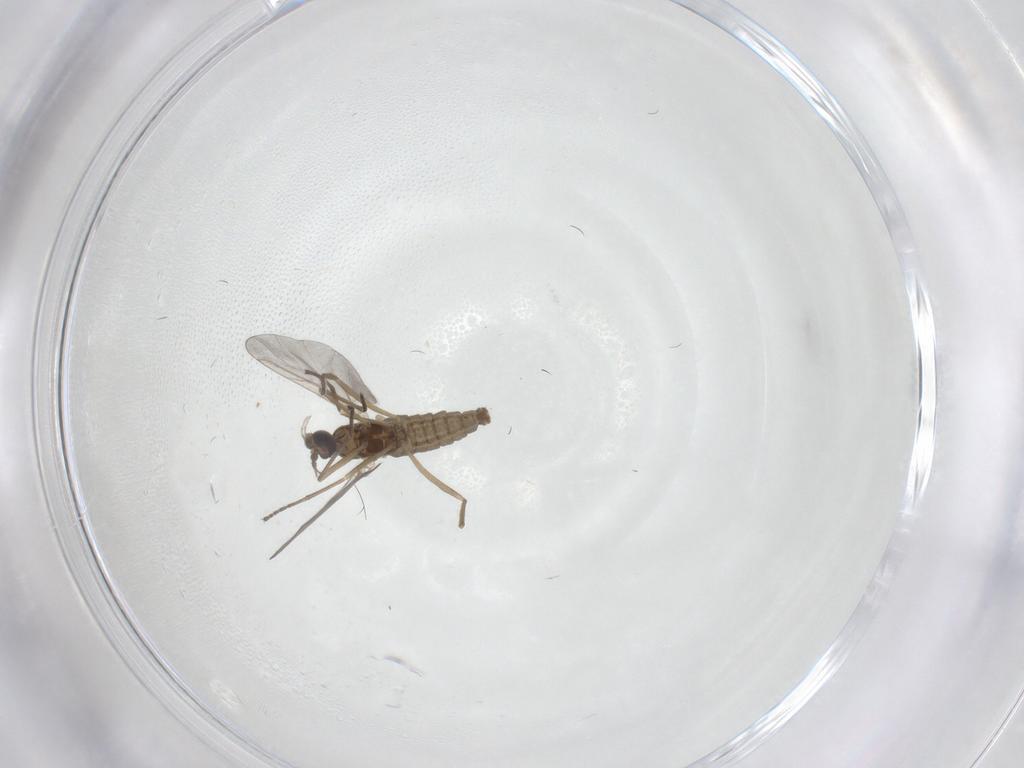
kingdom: Animalia
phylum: Arthropoda
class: Insecta
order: Diptera
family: Cecidomyiidae
